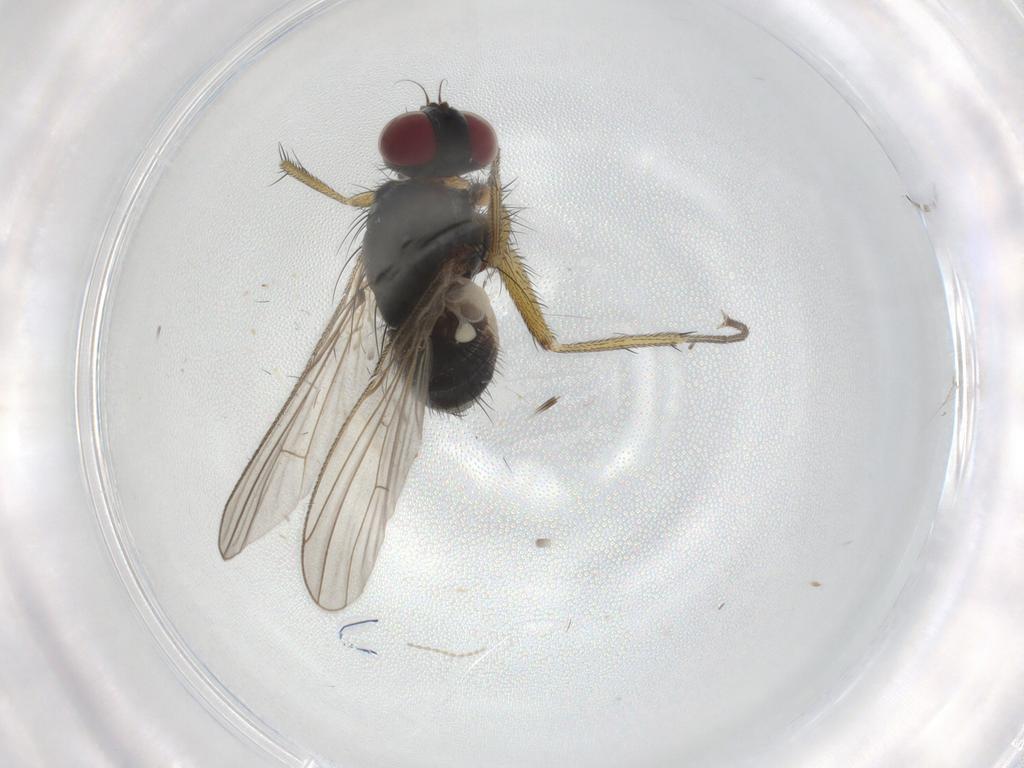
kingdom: Animalia
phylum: Arthropoda
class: Insecta
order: Diptera
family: Muscidae
